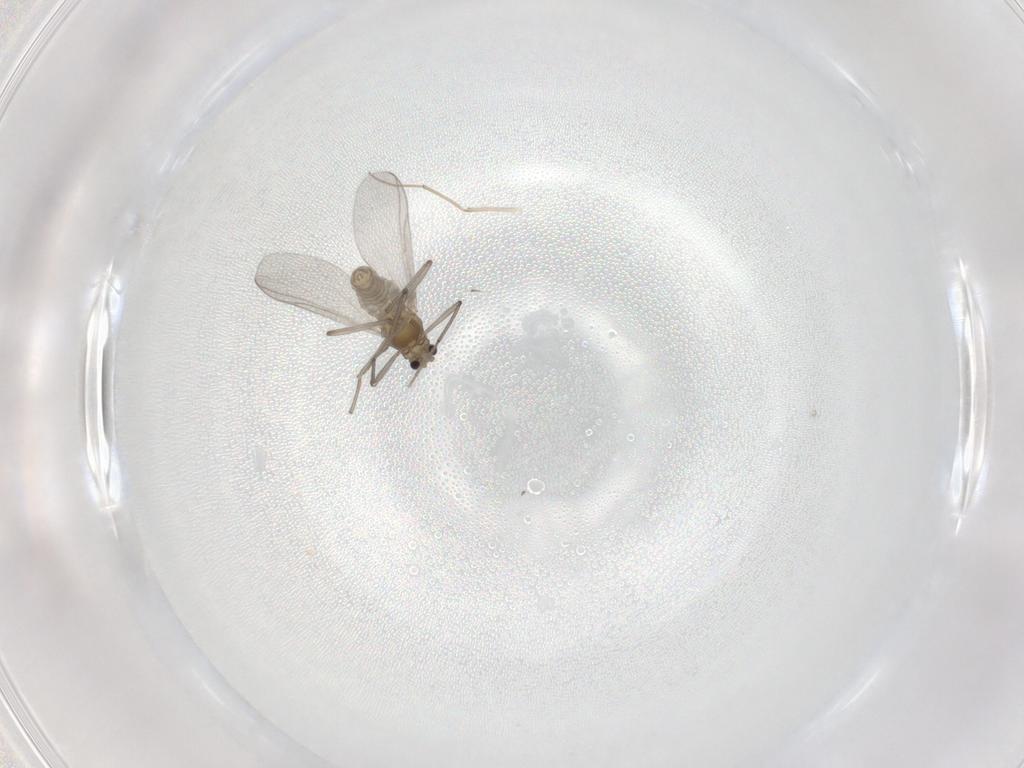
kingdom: Animalia
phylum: Arthropoda
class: Insecta
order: Diptera
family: Chironomidae
